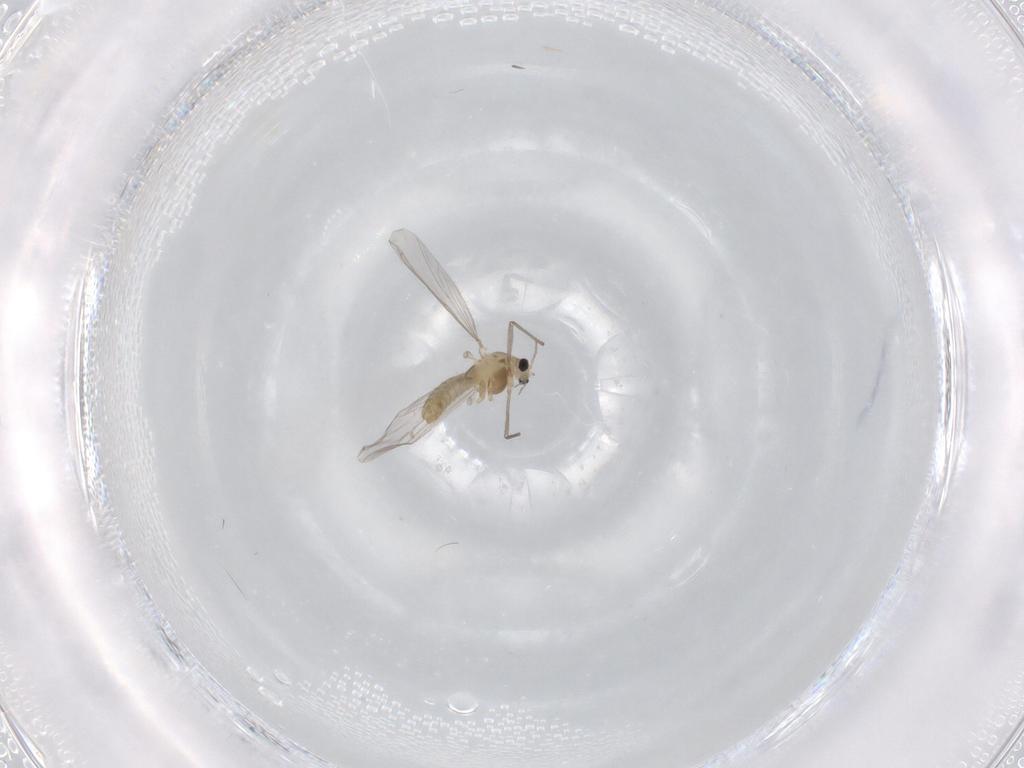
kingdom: Animalia
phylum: Arthropoda
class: Insecta
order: Diptera
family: Chironomidae
